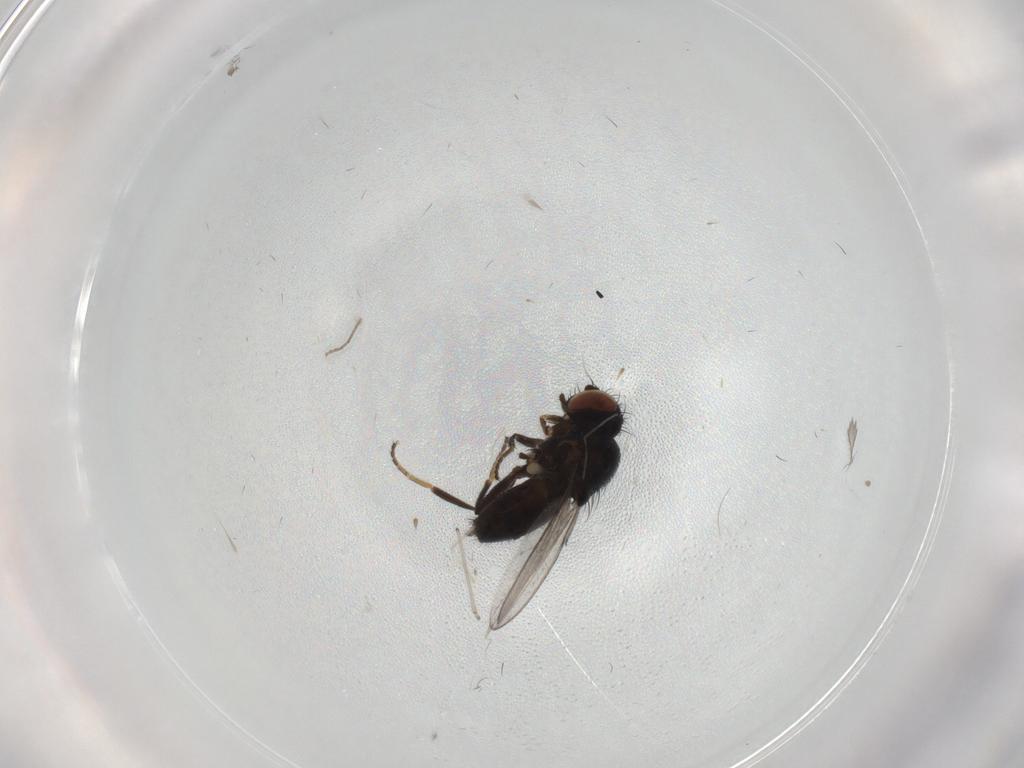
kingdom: Animalia
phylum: Arthropoda
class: Insecta
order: Diptera
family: Milichiidae
